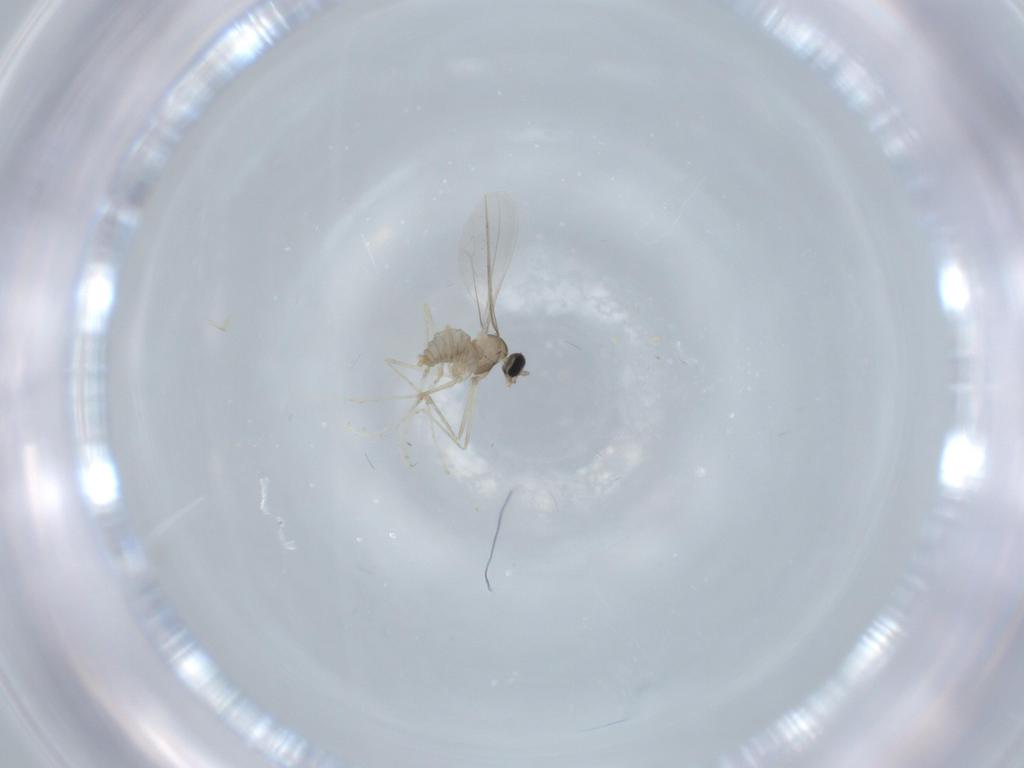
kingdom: Animalia
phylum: Arthropoda
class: Insecta
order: Diptera
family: Cecidomyiidae
